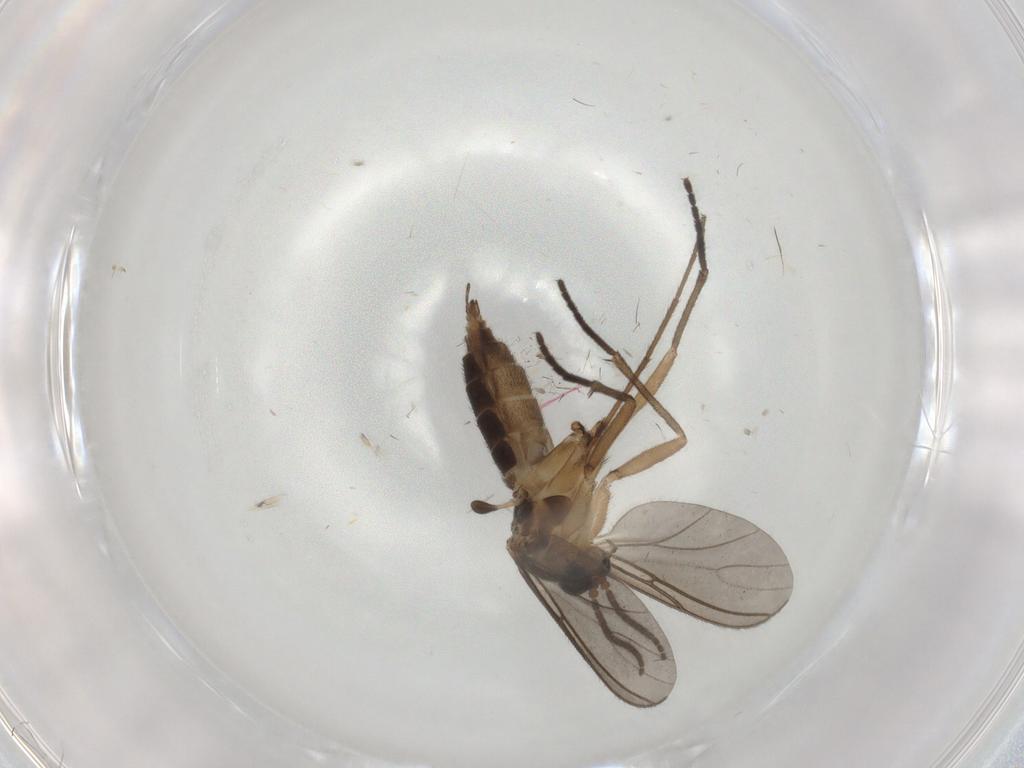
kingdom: Animalia
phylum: Arthropoda
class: Insecta
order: Diptera
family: Sciaridae
